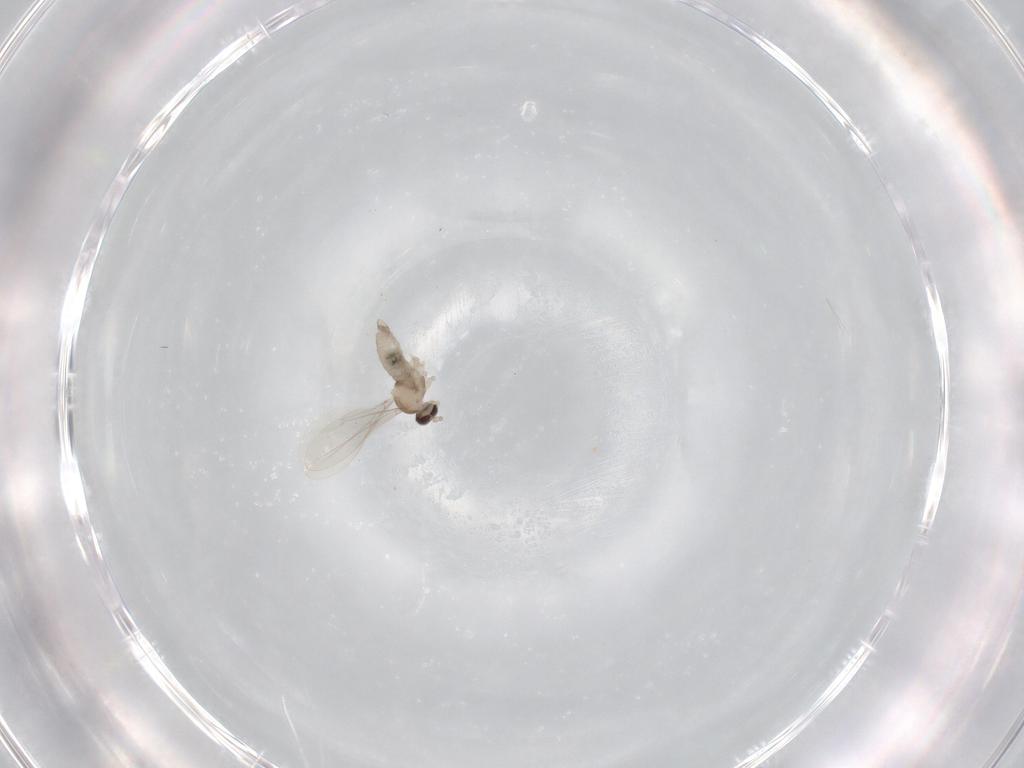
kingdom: Animalia
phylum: Arthropoda
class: Insecta
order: Diptera
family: Cecidomyiidae
